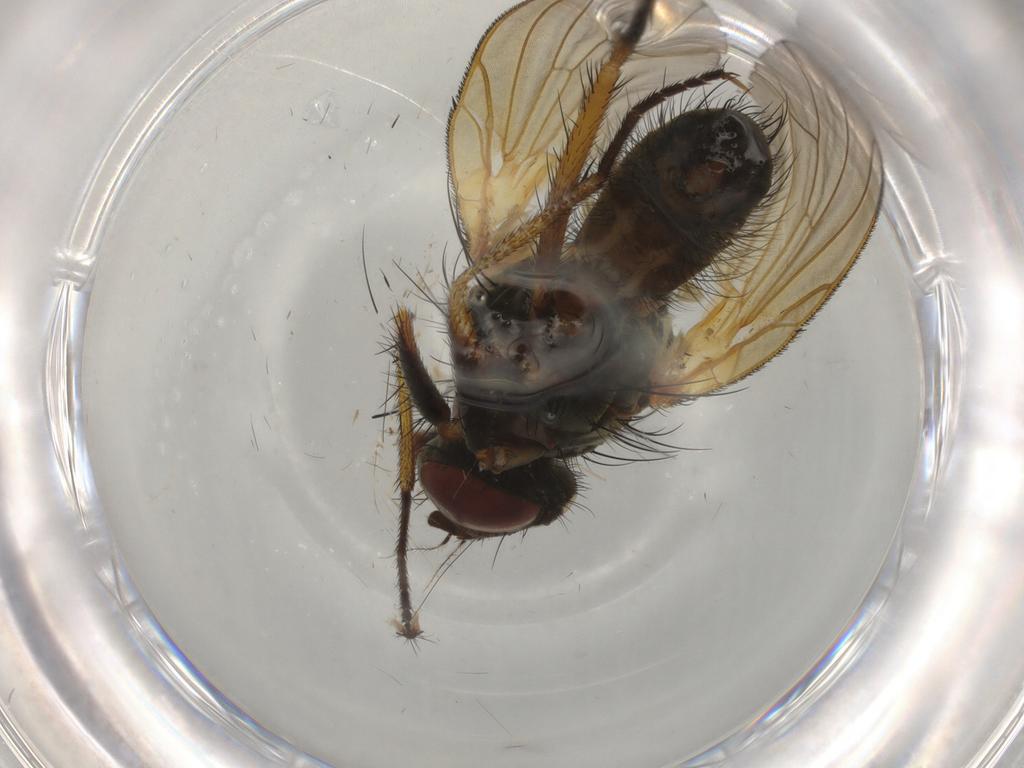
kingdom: Animalia
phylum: Arthropoda
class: Insecta
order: Diptera
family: Anthomyiidae
